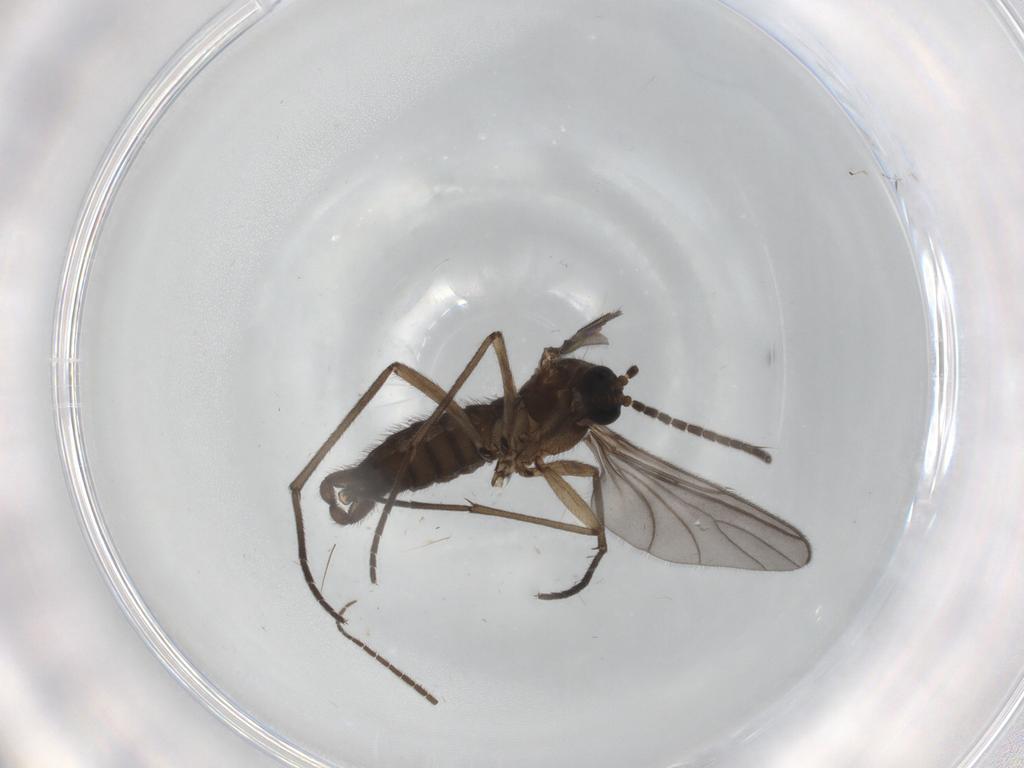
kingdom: Animalia
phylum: Arthropoda
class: Insecta
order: Diptera
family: Sciaridae
